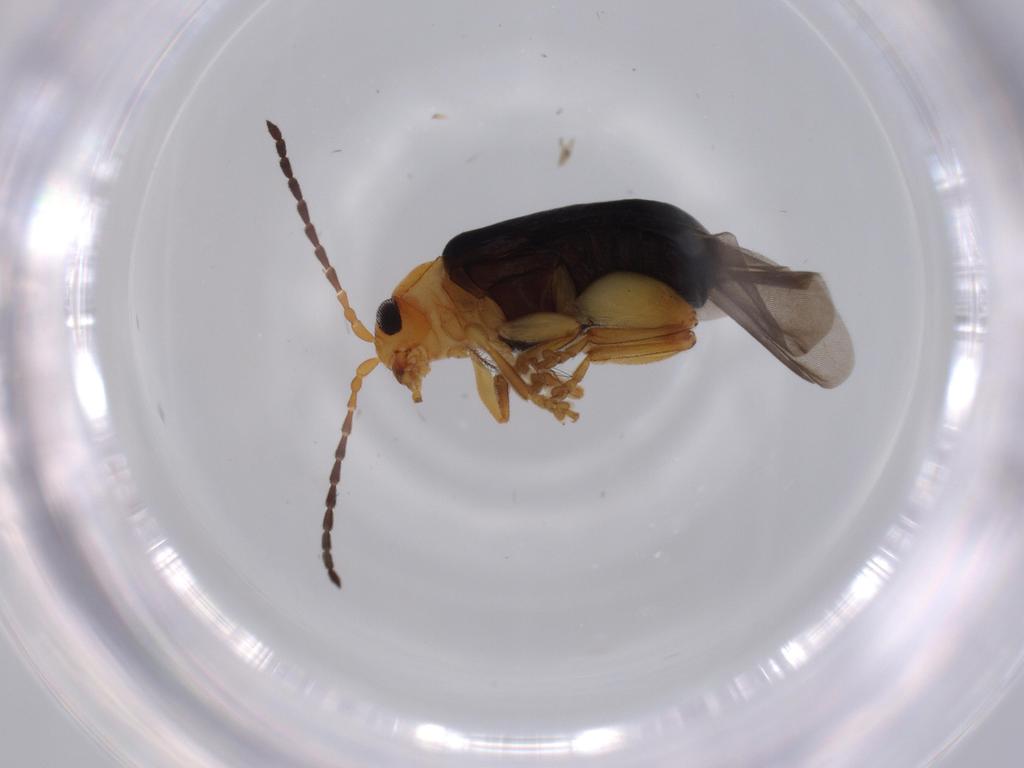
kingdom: Animalia
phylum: Arthropoda
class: Insecta
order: Coleoptera
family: Chrysomelidae
